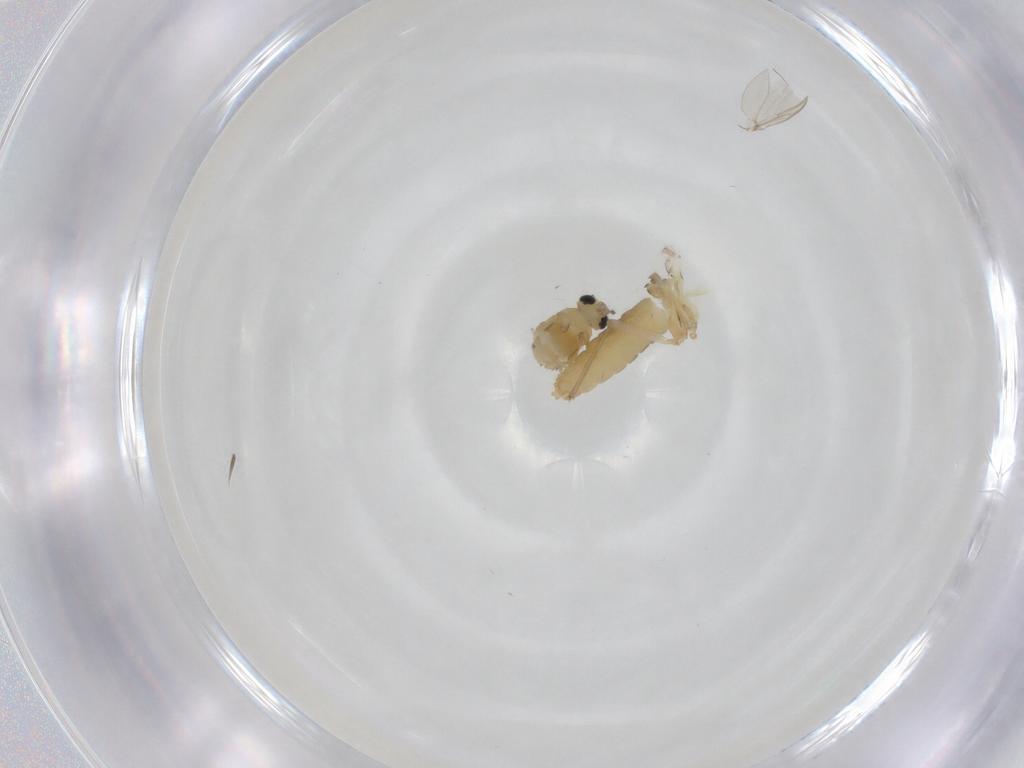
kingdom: Animalia
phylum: Arthropoda
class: Insecta
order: Diptera
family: Chironomidae
